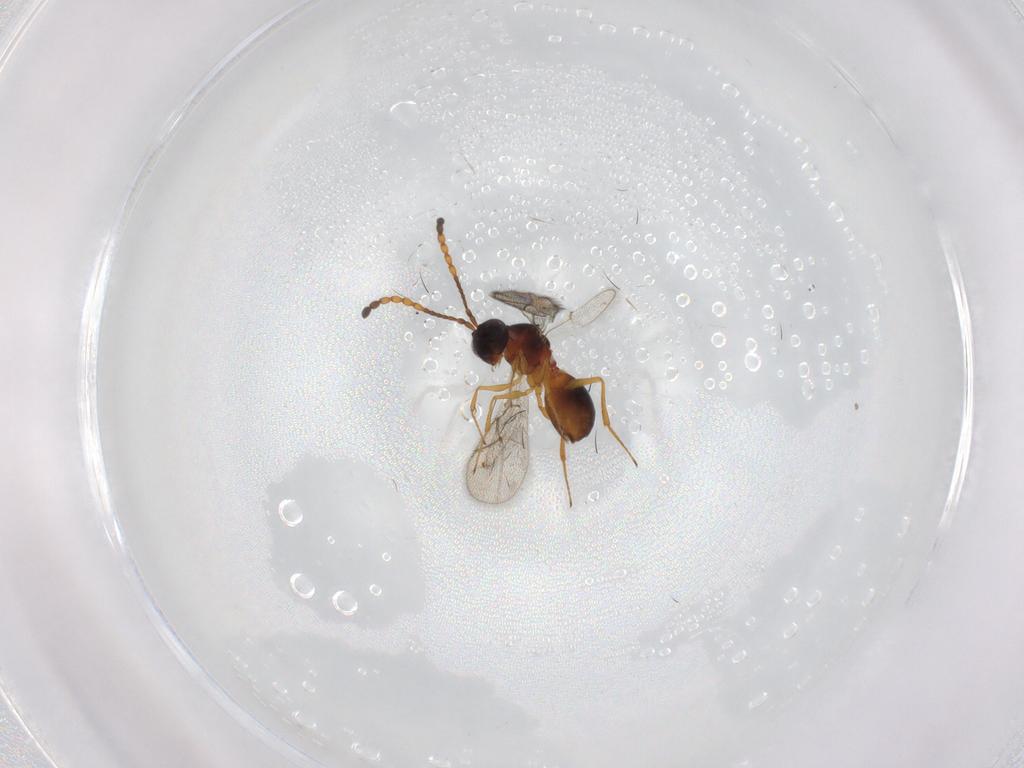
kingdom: Animalia
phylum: Arthropoda
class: Insecta
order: Hymenoptera
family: Figitidae
